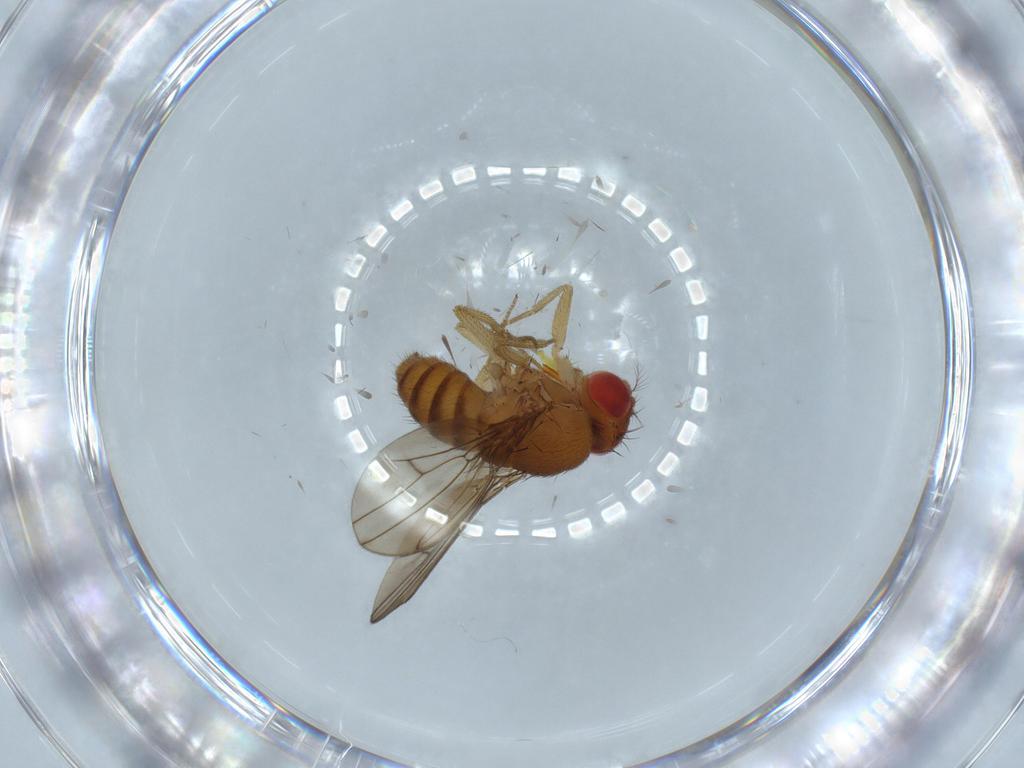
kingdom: Animalia
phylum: Arthropoda
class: Insecta
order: Diptera
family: Drosophilidae
